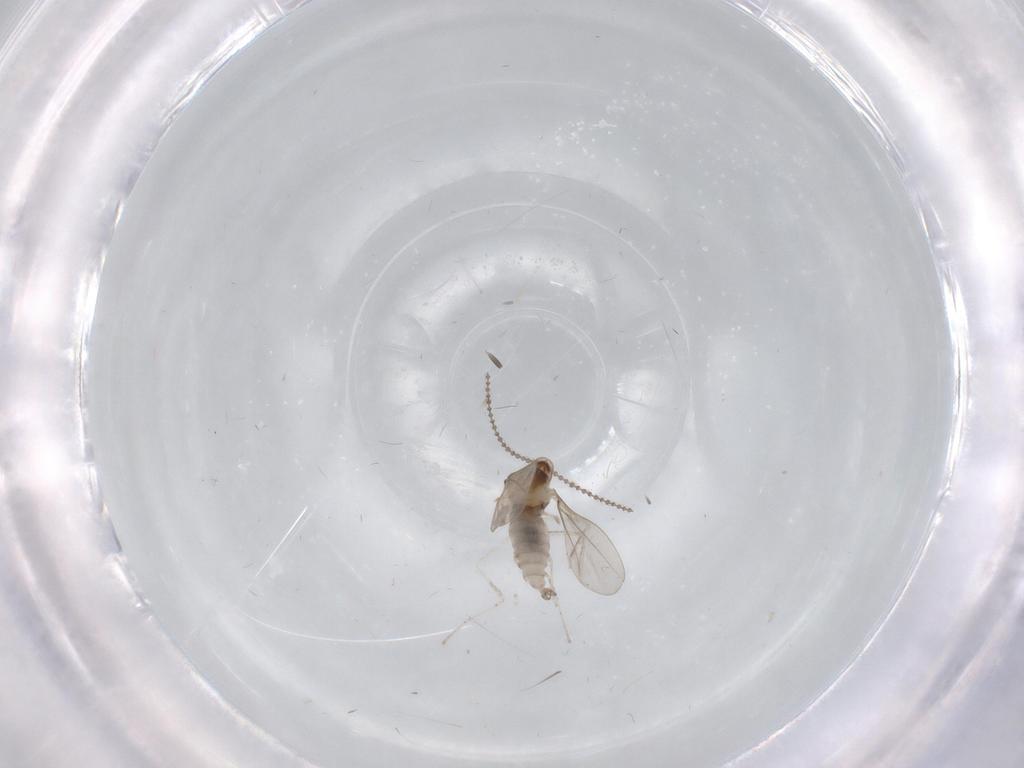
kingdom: Animalia
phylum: Arthropoda
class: Insecta
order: Diptera
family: Cecidomyiidae
